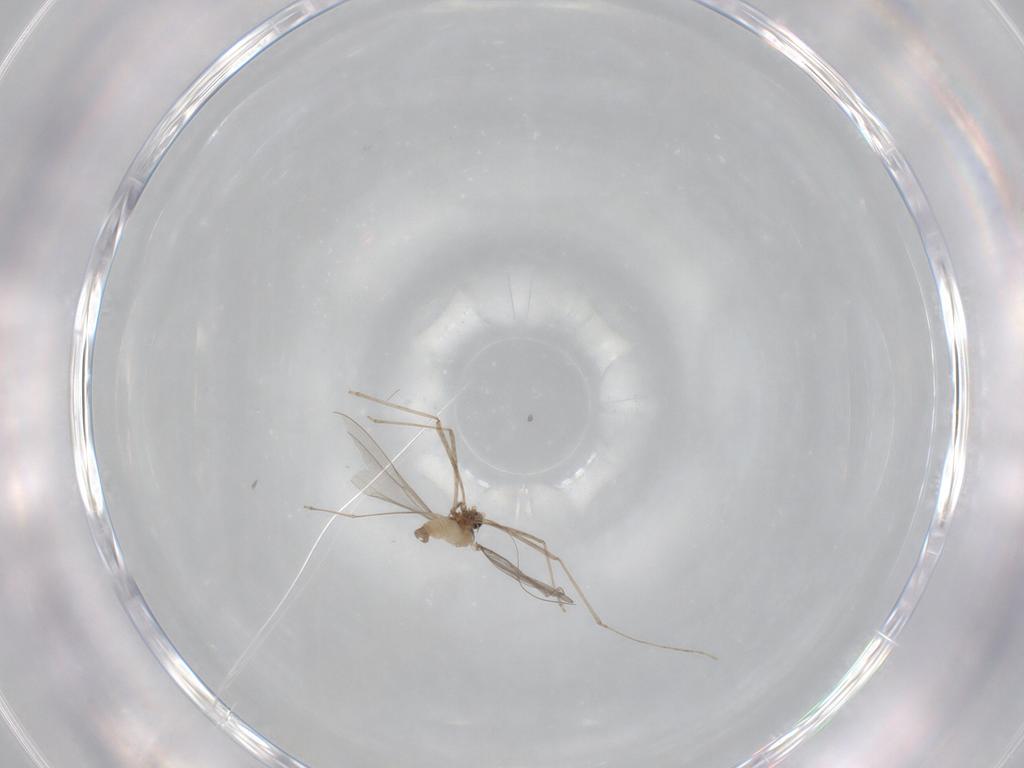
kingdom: Animalia
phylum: Arthropoda
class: Insecta
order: Diptera
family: Cecidomyiidae
